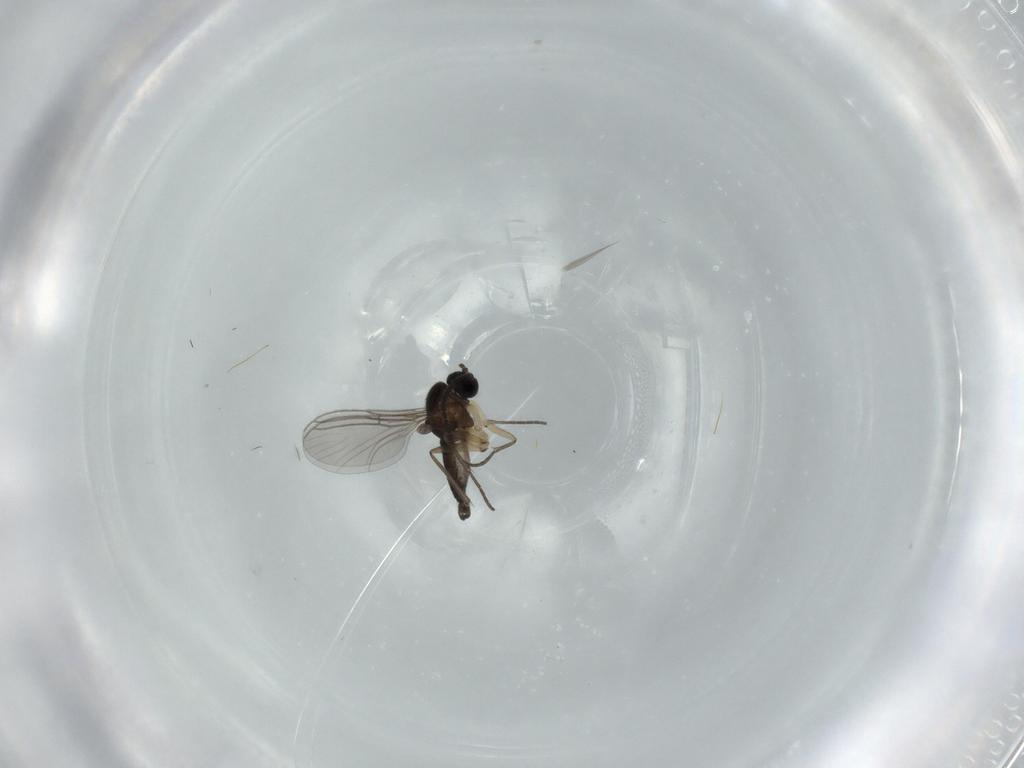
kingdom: Animalia
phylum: Arthropoda
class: Insecta
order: Diptera
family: Sciaridae
